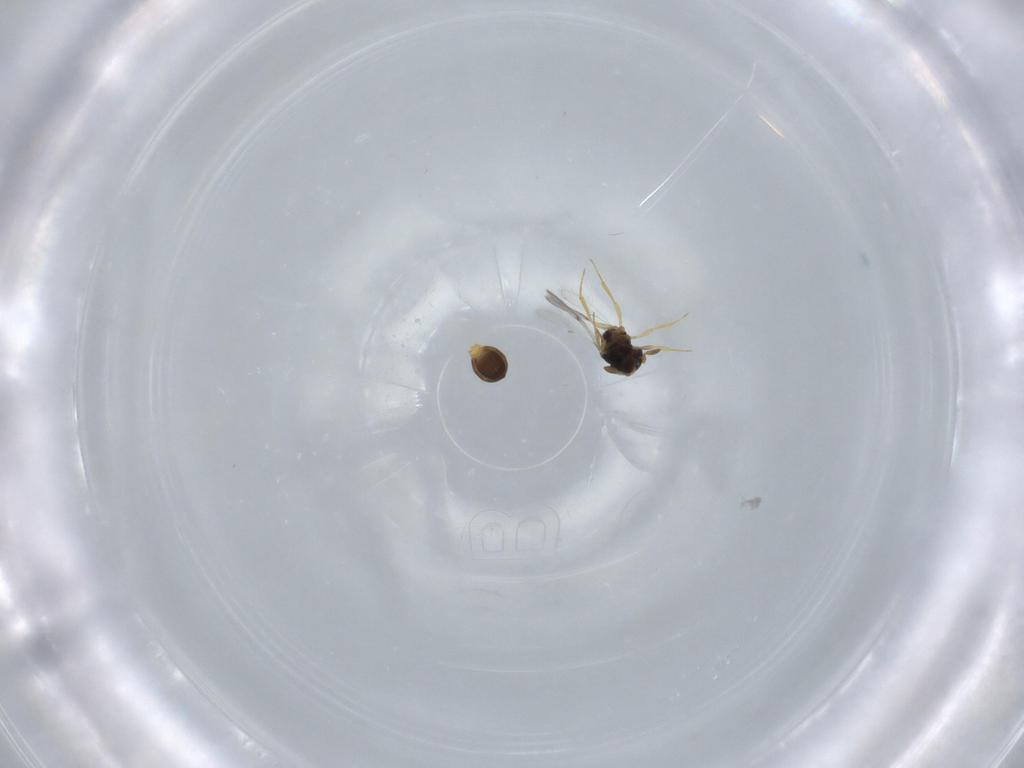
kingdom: Animalia
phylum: Arthropoda
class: Insecta
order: Hymenoptera
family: Scelionidae
